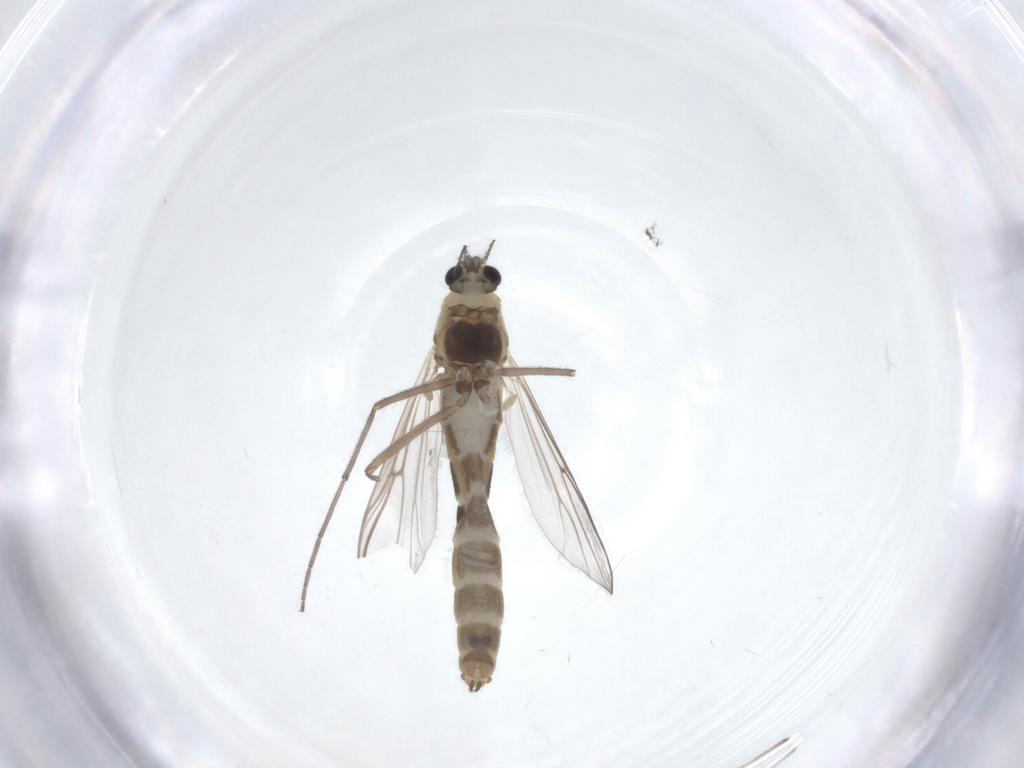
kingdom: Animalia
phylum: Arthropoda
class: Insecta
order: Diptera
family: Chironomidae
